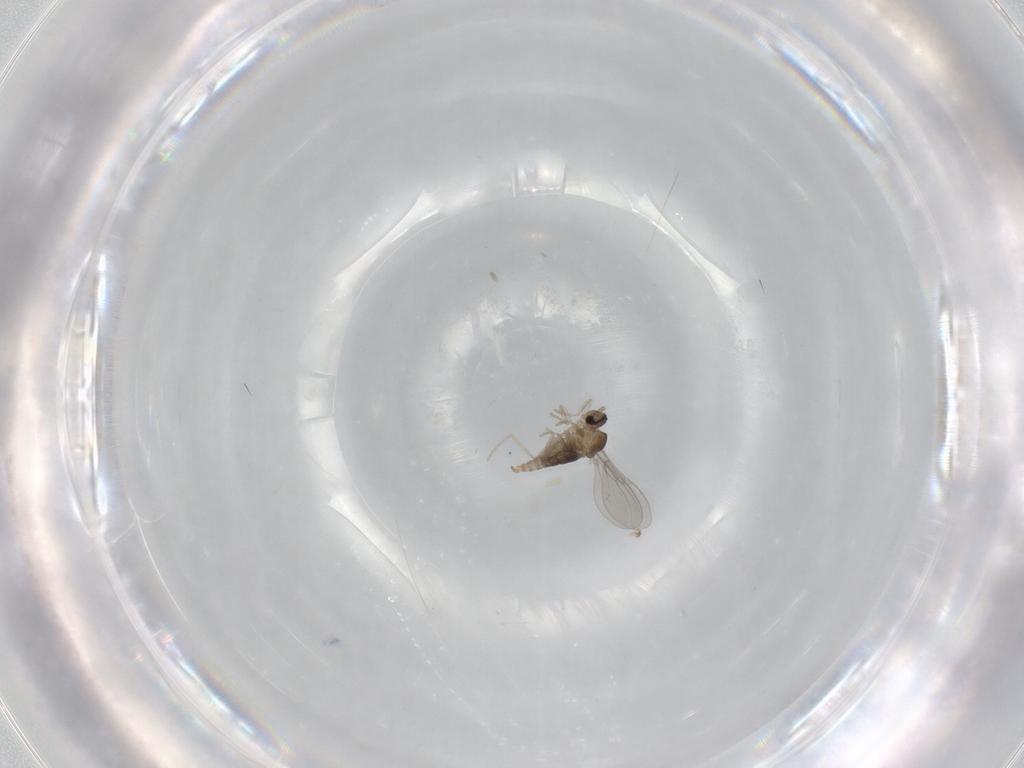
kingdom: Animalia
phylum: Arthropoda
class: Insecta
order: Diptera
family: Cecidomyiidae
